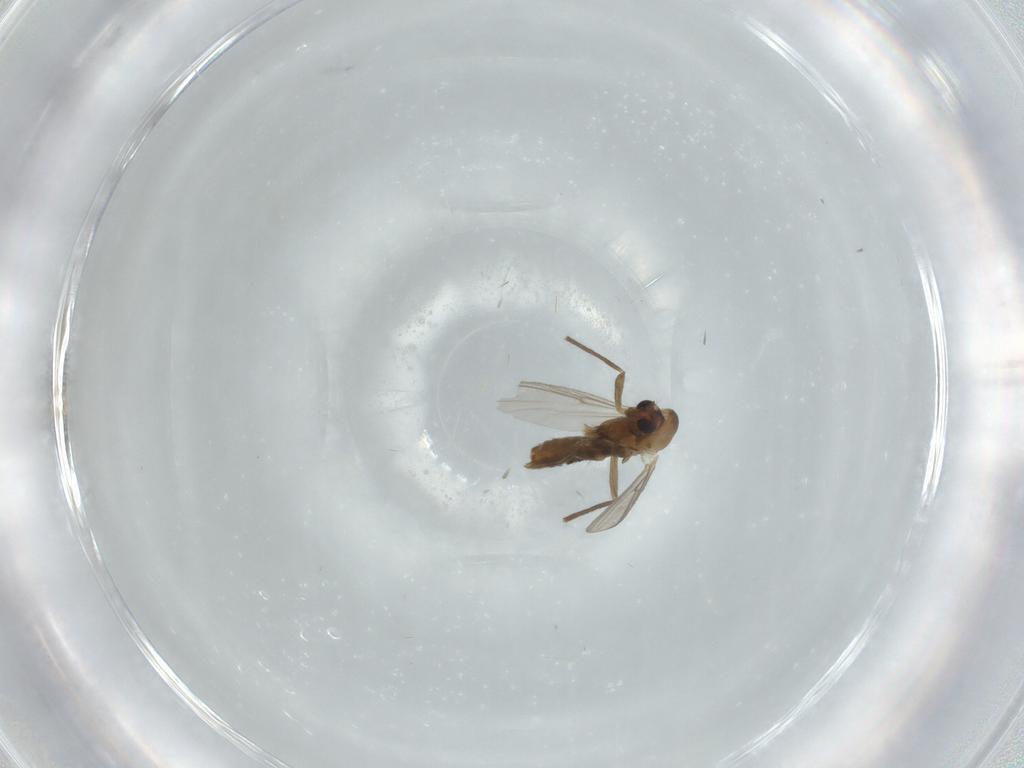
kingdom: Animalia
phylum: Arthropoda
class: Insecta
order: Diptera
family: Chironomidae
